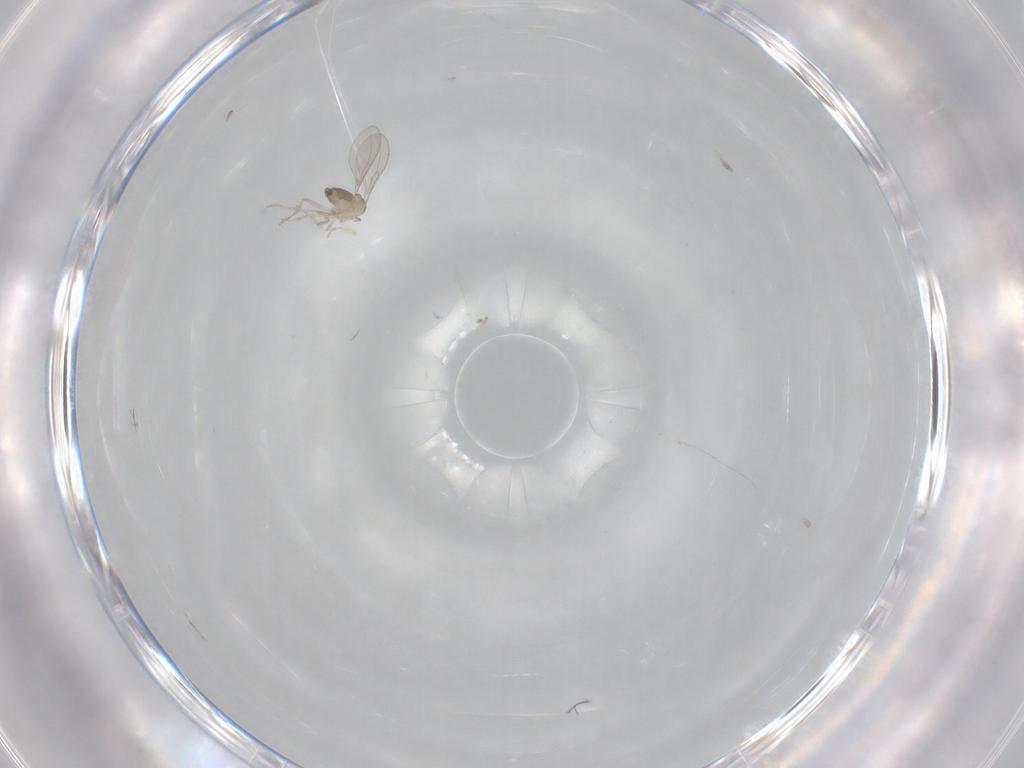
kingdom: Animalia
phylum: Arthropoda
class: Insecta
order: Diptera
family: Cecidomyiidae
